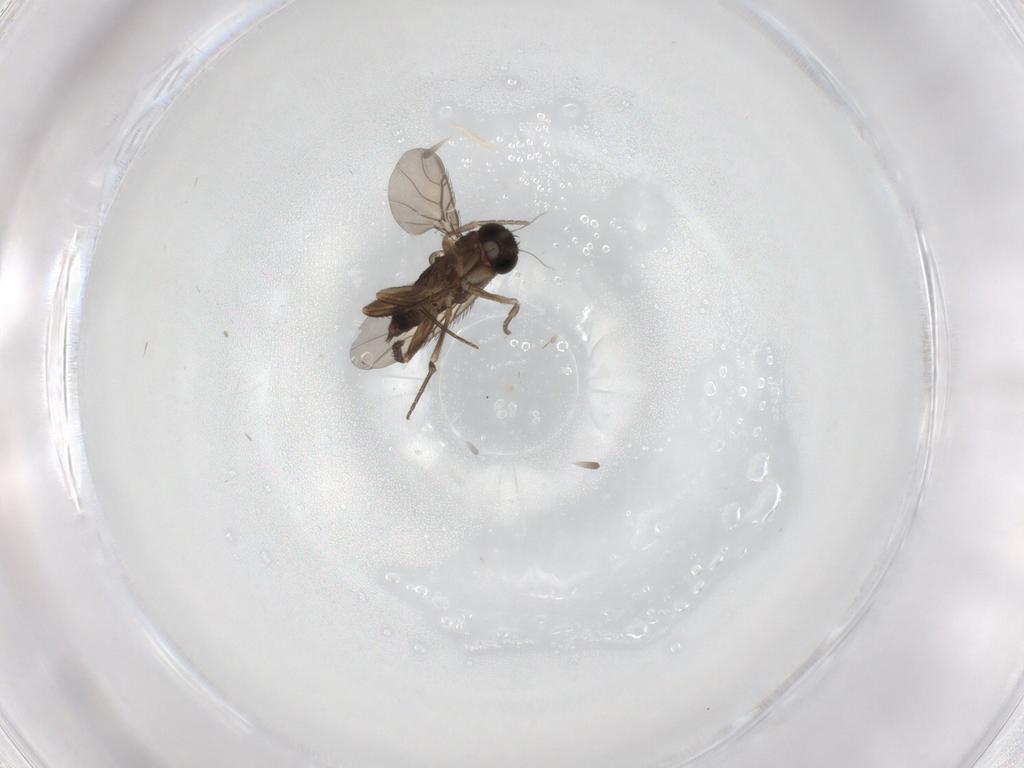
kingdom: Animalia
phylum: Arthropoda
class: Insecta
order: Diptera
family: Phoridae
